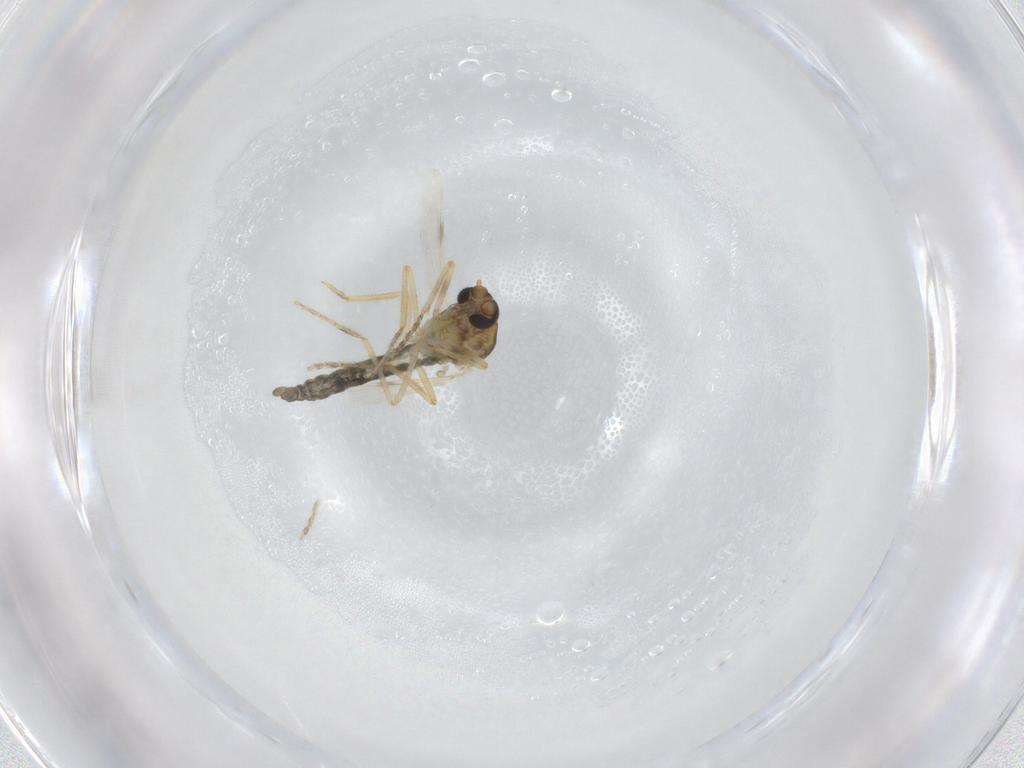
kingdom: Animalia
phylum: Arthropoda
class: Insecta
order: Diptera
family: Ceratopogonidae
